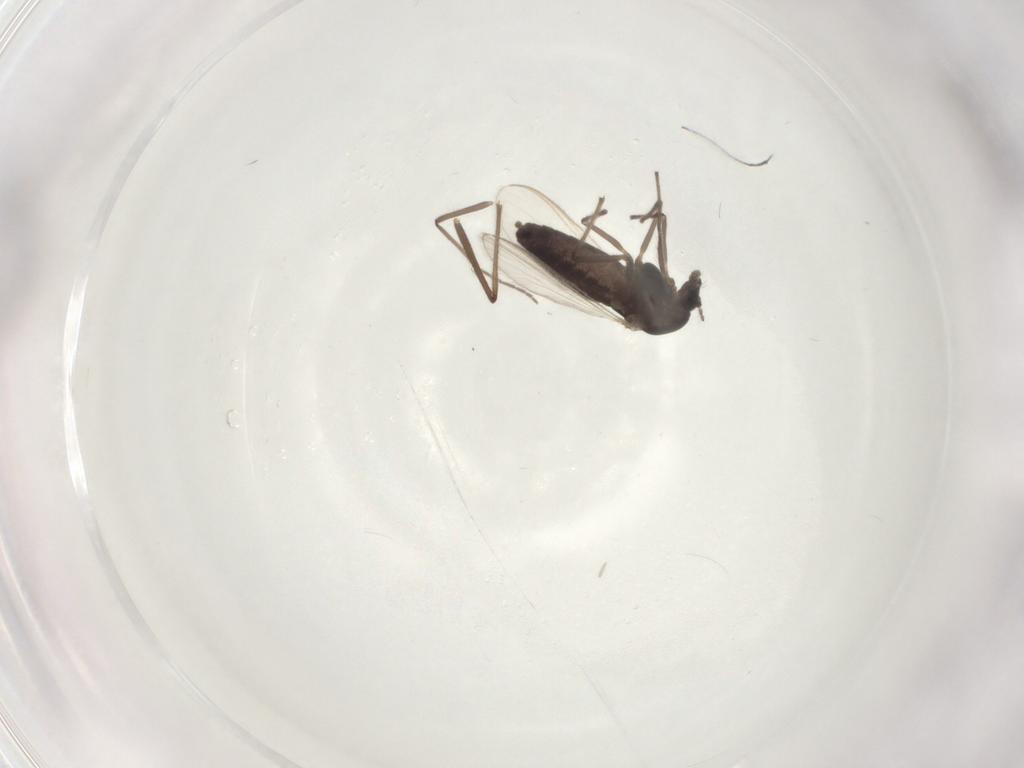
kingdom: Animalia
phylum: Arthropoda
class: Insecta
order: Diptera
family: Chironomidae
